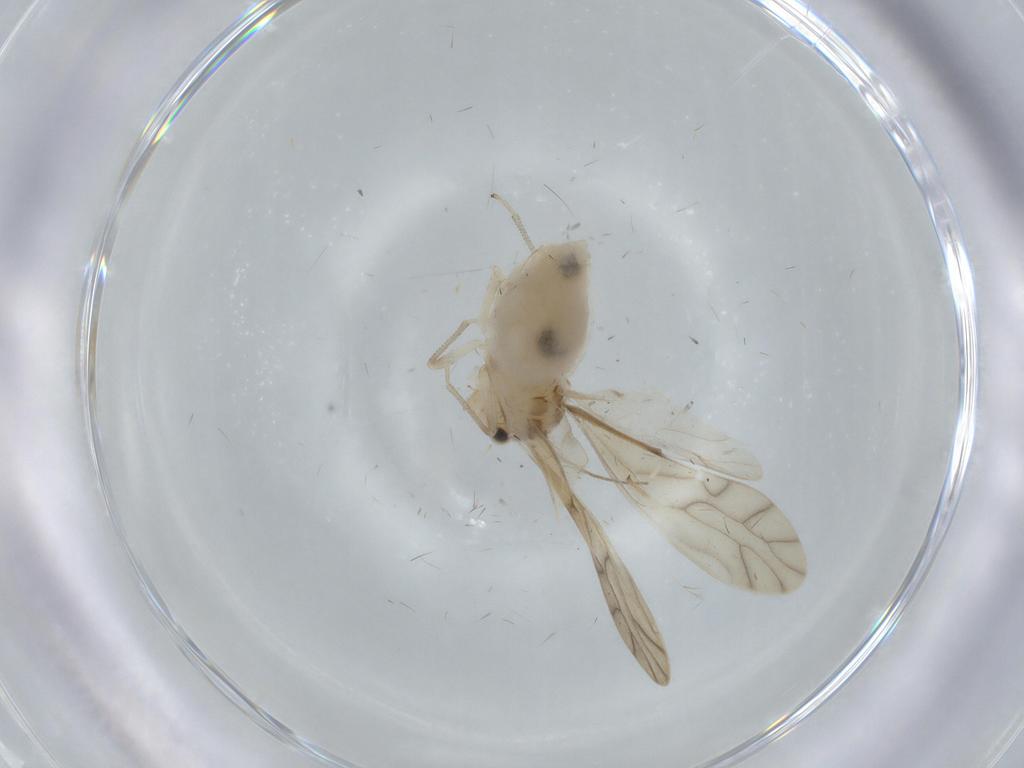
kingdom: Animalia
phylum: Arthropoda
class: Insecta
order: Psocodea
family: Caeciliusidae
